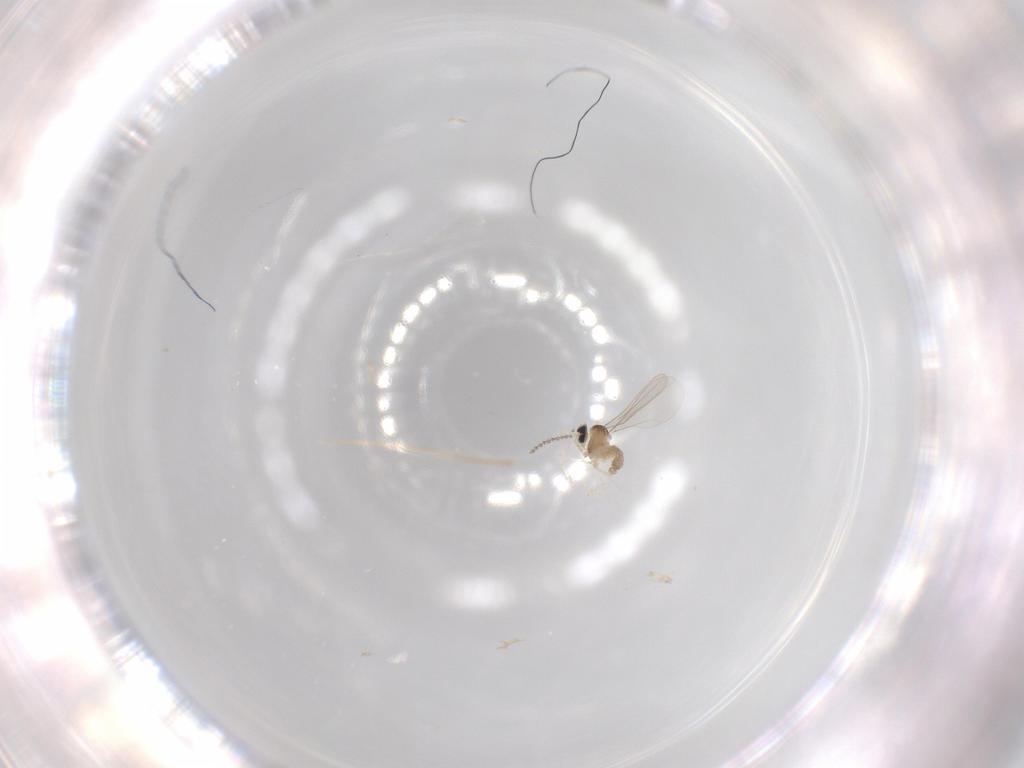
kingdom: Animalia
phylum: Arthropoda
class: Insecta
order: Diptera
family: Cecidomyiidae
